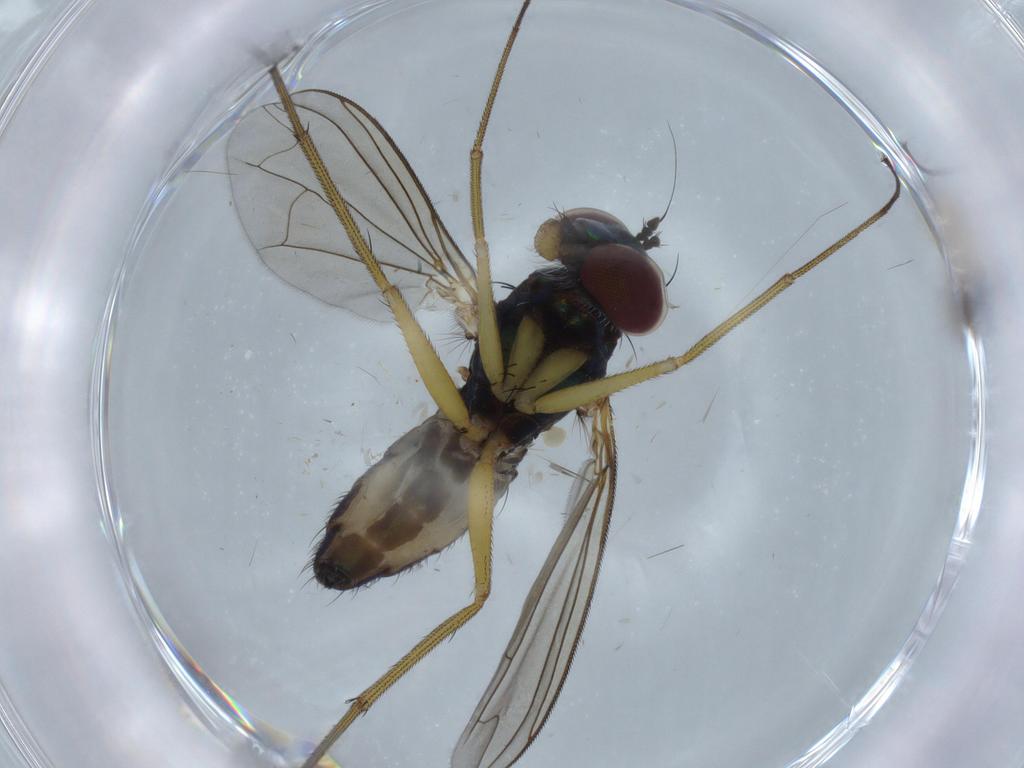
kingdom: Animalia
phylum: Arthropoda
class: Insecta
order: Diptera
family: Dolichopodidae
